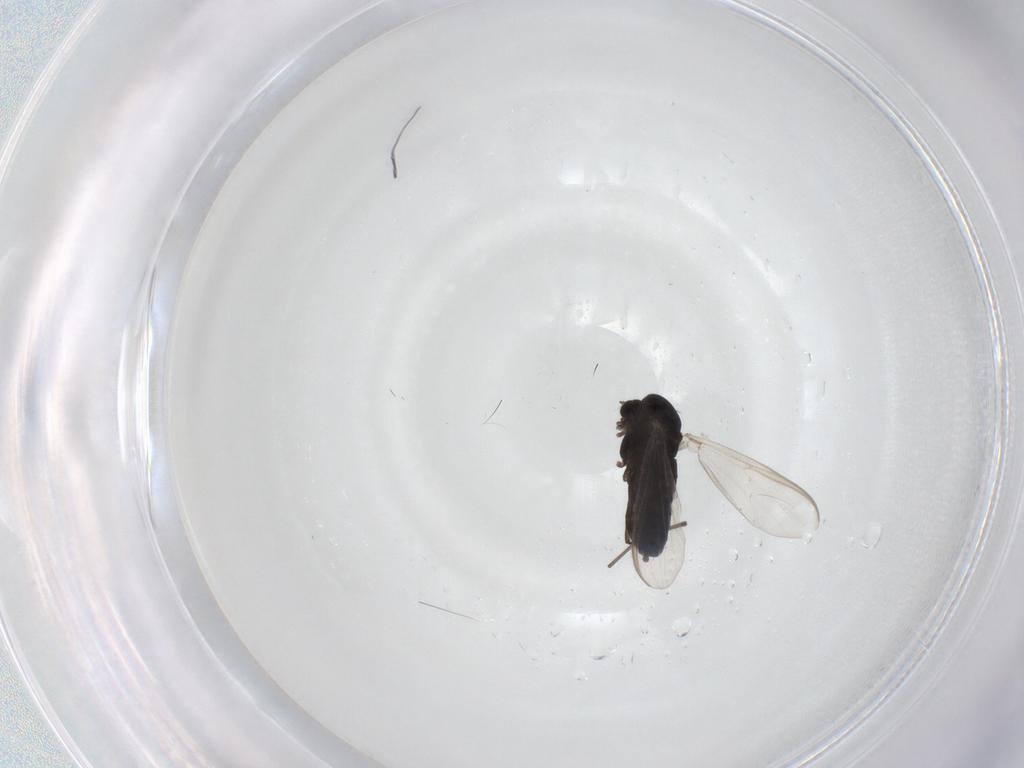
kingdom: Animalia
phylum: Arthropoda
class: Insecta
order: Diptera
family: Chironomidae
